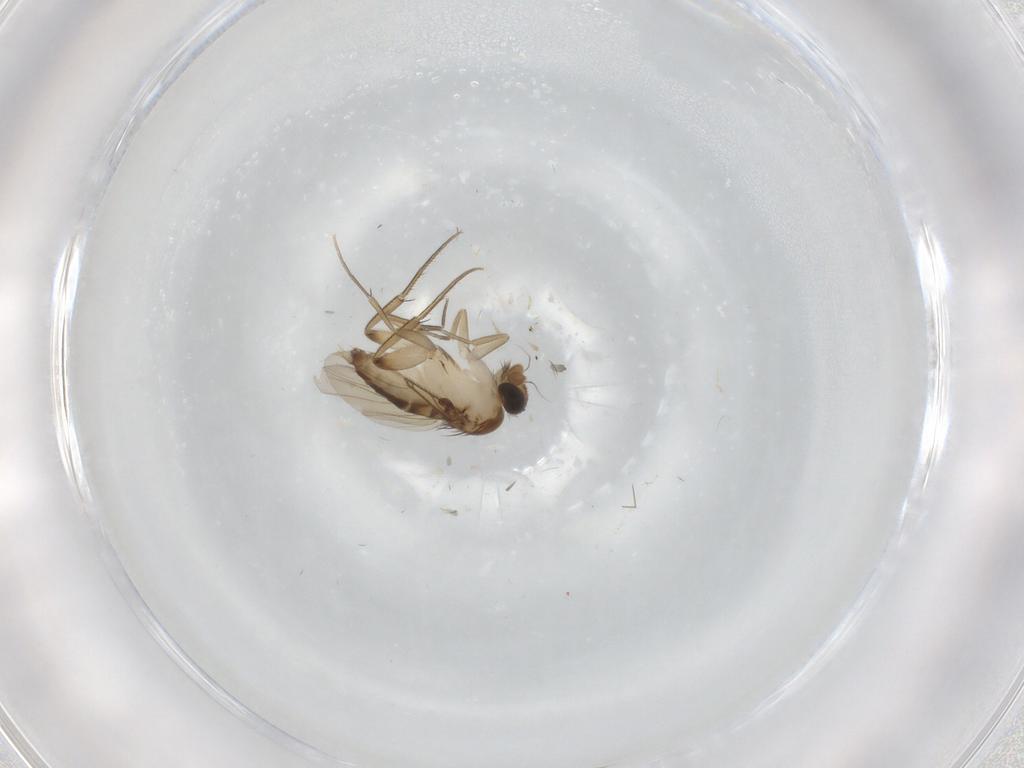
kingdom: Animalia
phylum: Arthropoda
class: Insecta
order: Diptera
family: Phoridae
